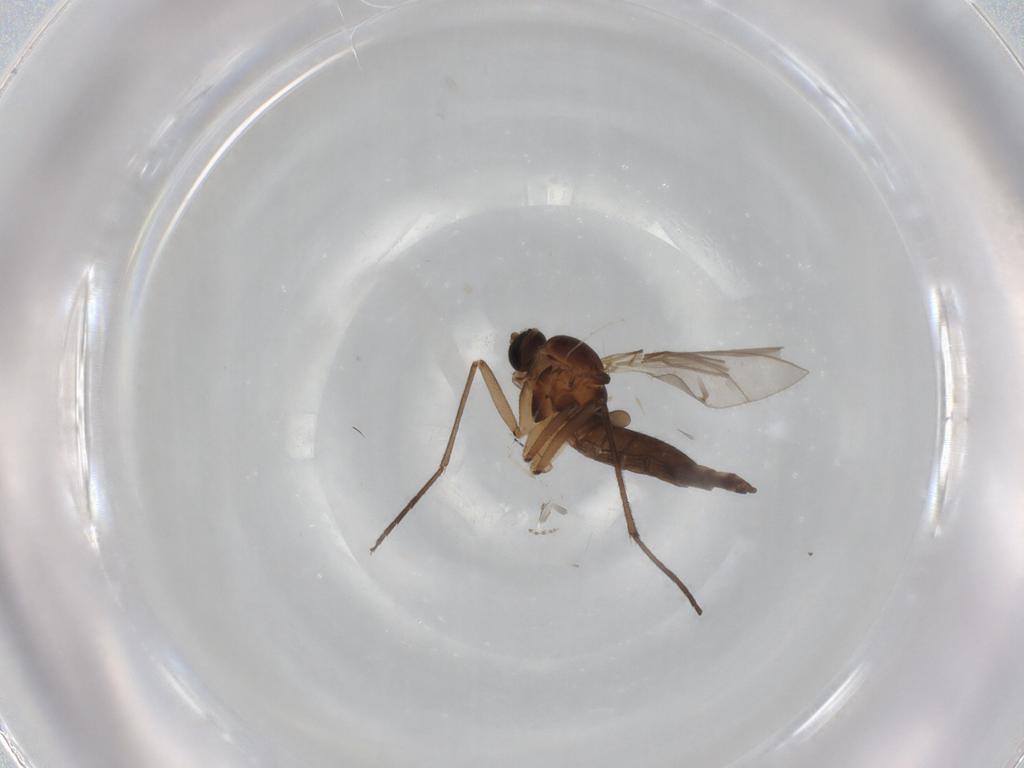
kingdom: Animalia
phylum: Arthropoda
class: Insecta
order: Diptera
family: Sciaridae
